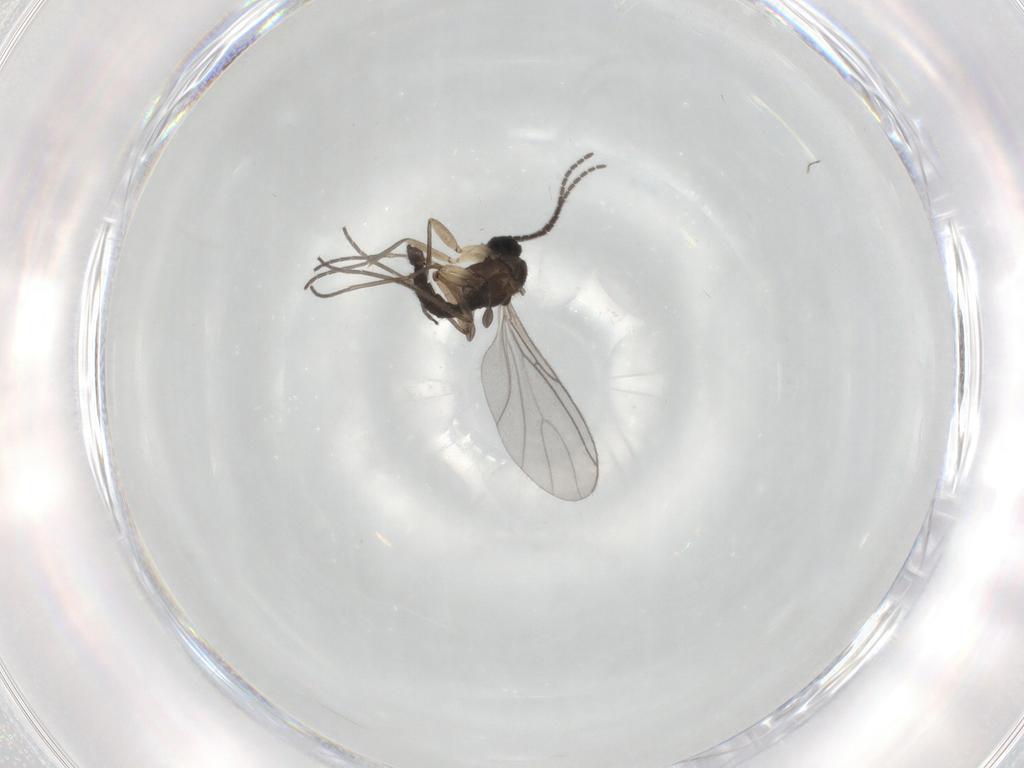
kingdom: Animalia
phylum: Arthropoda
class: Insecta
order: Diptera
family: Sciaridae
